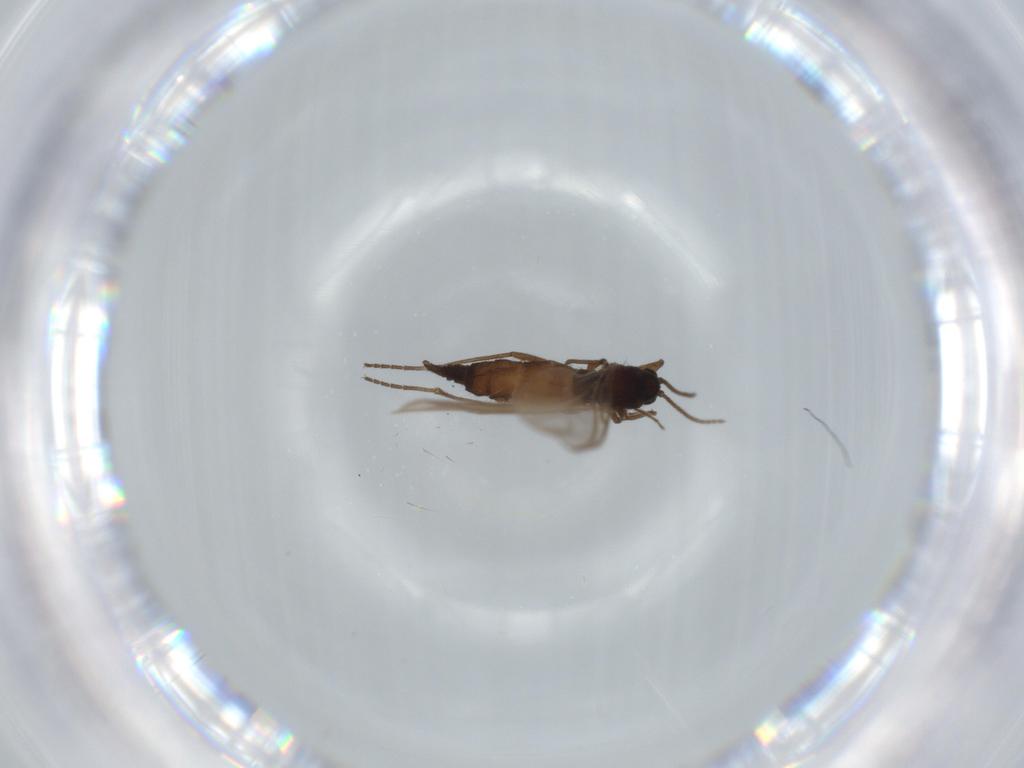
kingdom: Animalia
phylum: Arthropoda
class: Insecta
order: Diptera
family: Sciaridae
